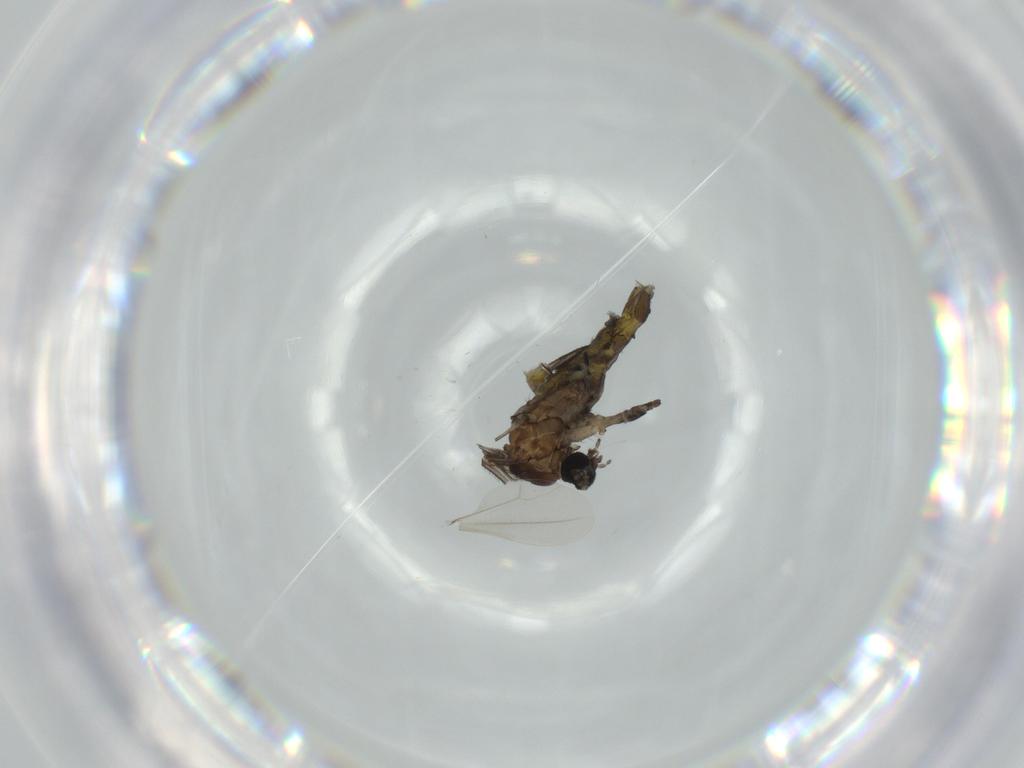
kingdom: Animalia
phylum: Arthropoda
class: Insecta
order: Diptera
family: Sciaridae
